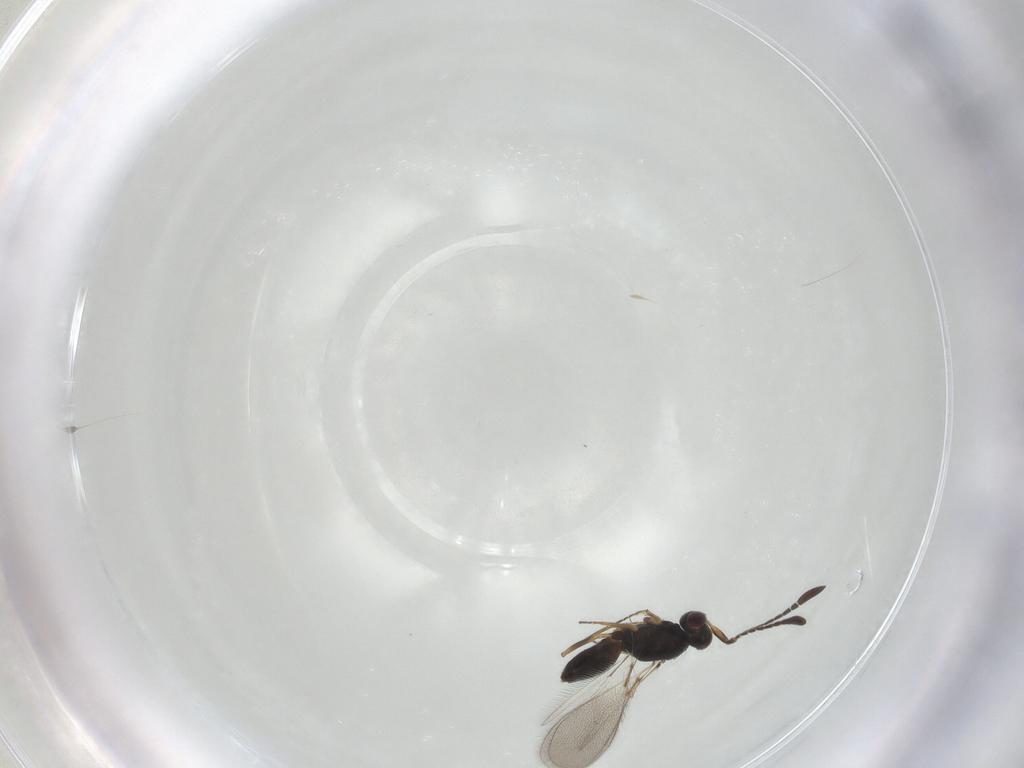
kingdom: Animalia
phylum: Arthropoda
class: Insecta
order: Hymenoptera
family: Mymaridae
